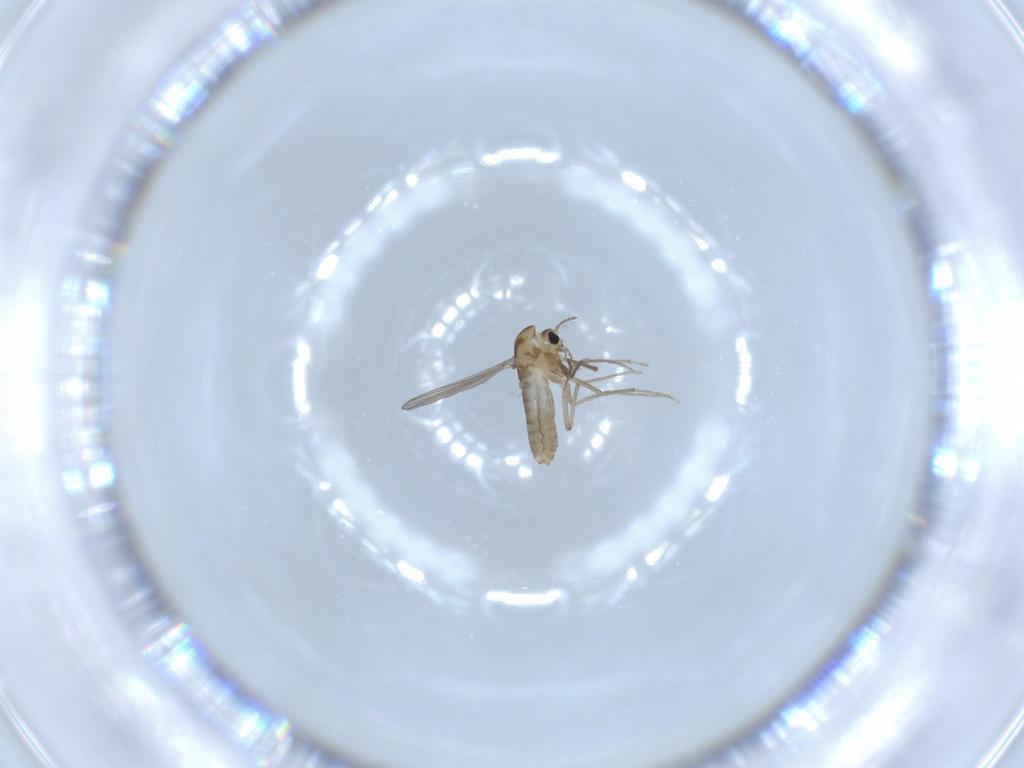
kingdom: Animalia
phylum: Arthropoda
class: Insecta
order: Diptera
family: Chironomidae
